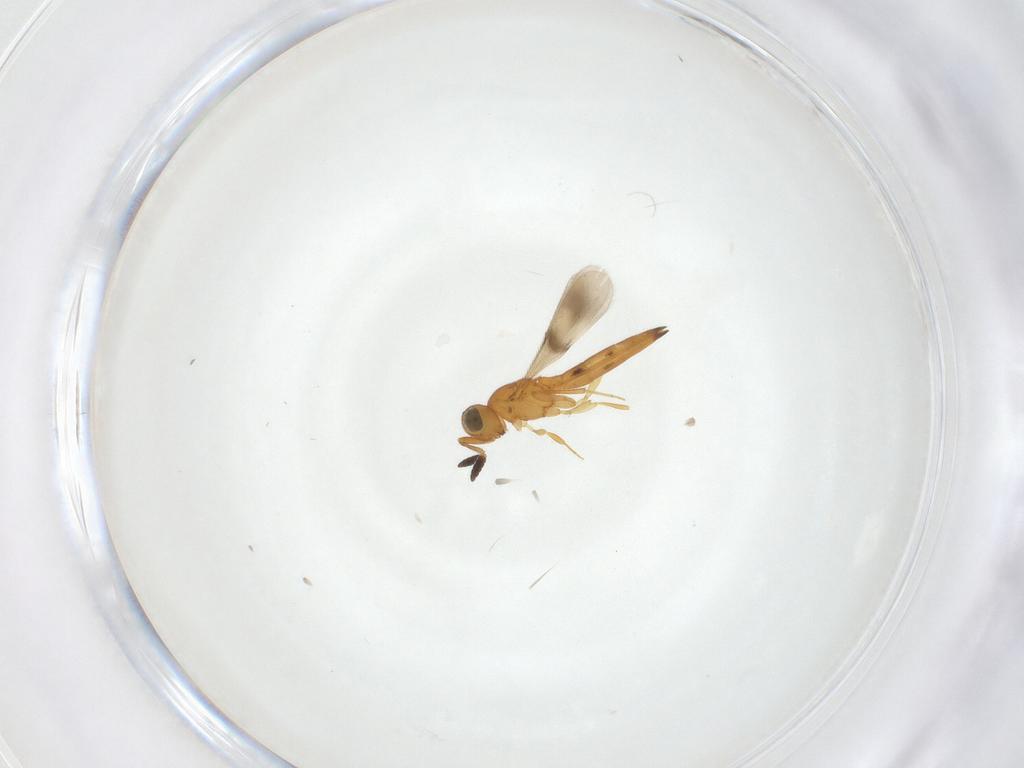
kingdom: Animalia
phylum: Arthropoda
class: Insecta
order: Hymenoptera
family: Scelionidae
